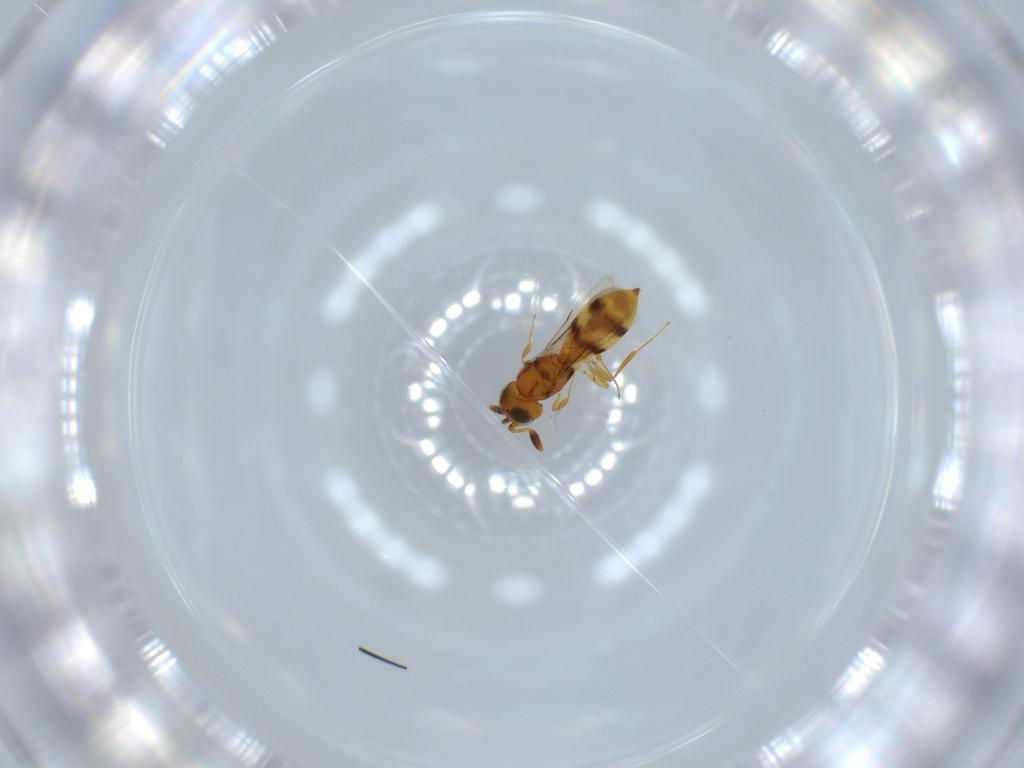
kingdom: Animalia
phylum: Arthropoda
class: Insecta
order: Hymenoptera
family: Scelionidae
